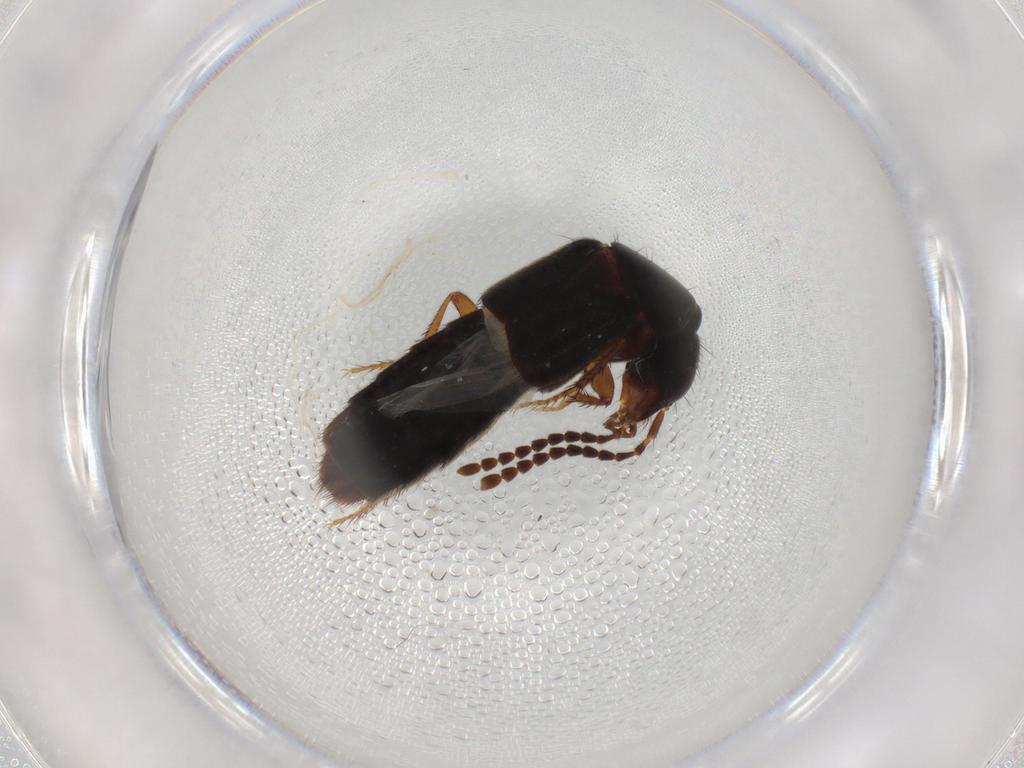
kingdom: Animalia
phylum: Arthropoda
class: Insecta
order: Coleoptera
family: Staphylinidae
